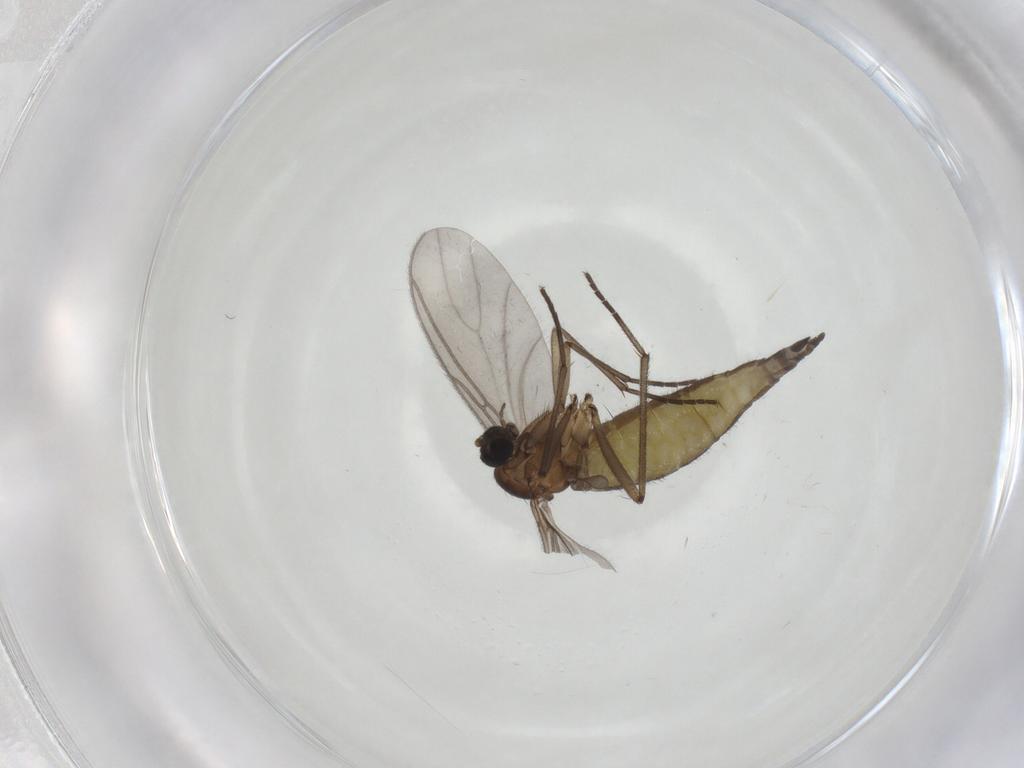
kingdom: Animalia
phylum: Arthropoda
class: Insecta
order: Diptera
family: Sciaridae
